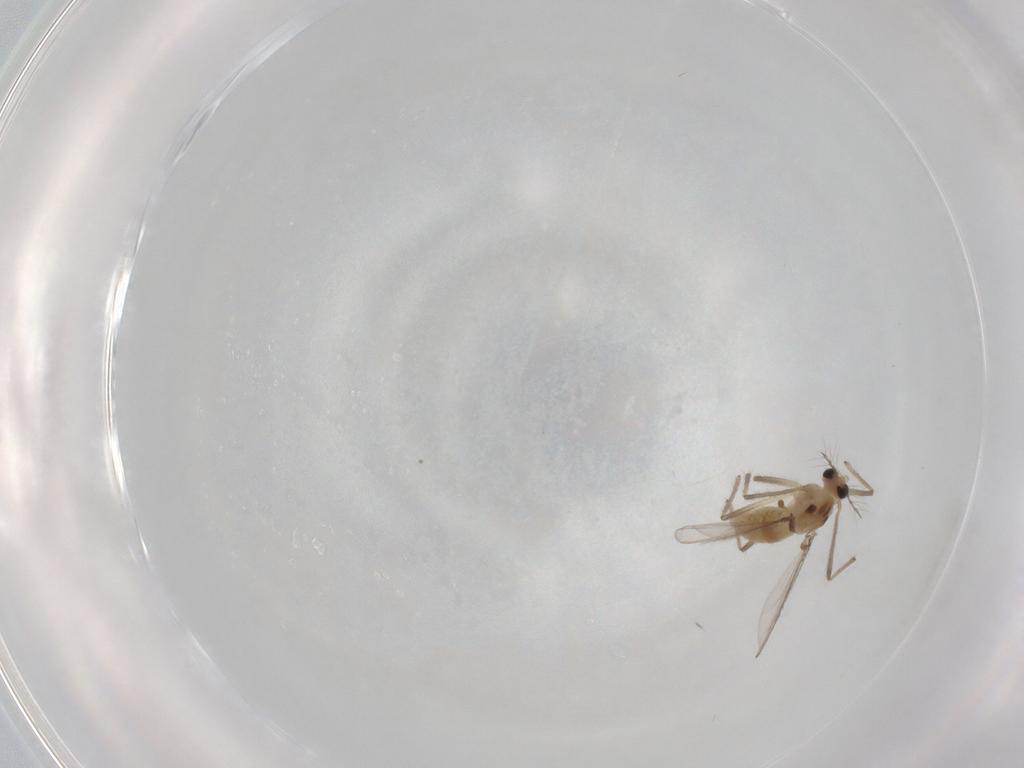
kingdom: Animalia
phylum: Arthropoda
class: Insecta
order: Diptera
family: Chironomidae
